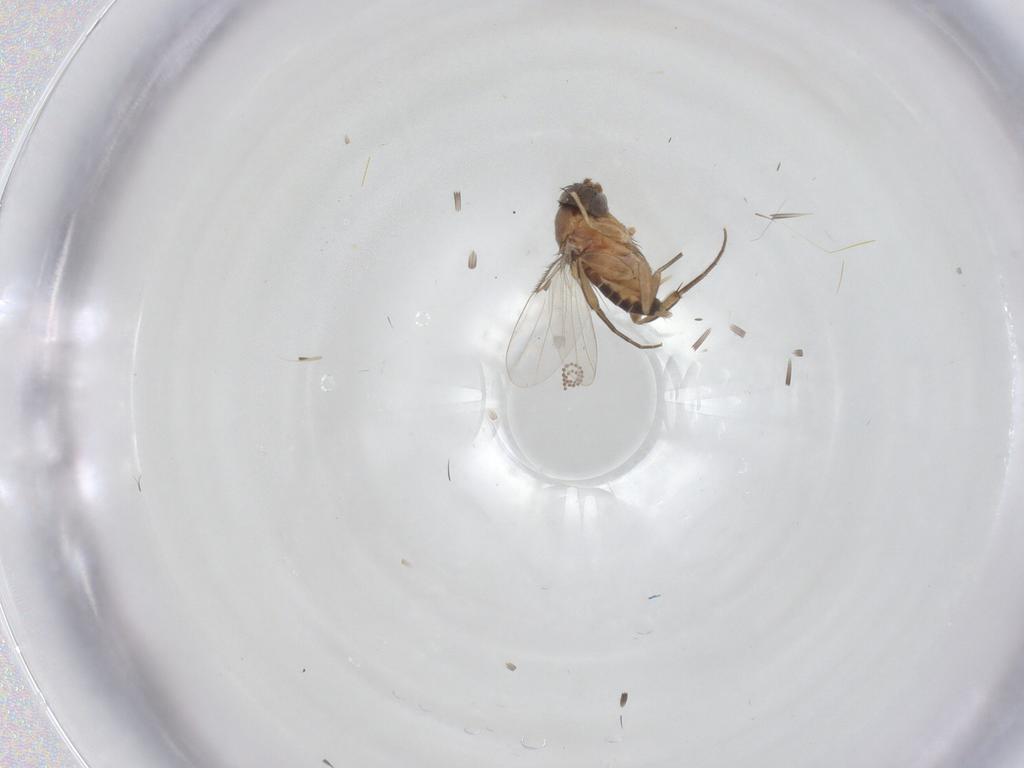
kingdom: Animalia
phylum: Arthropoda
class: Insecta
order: Diptera
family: Phoridae
